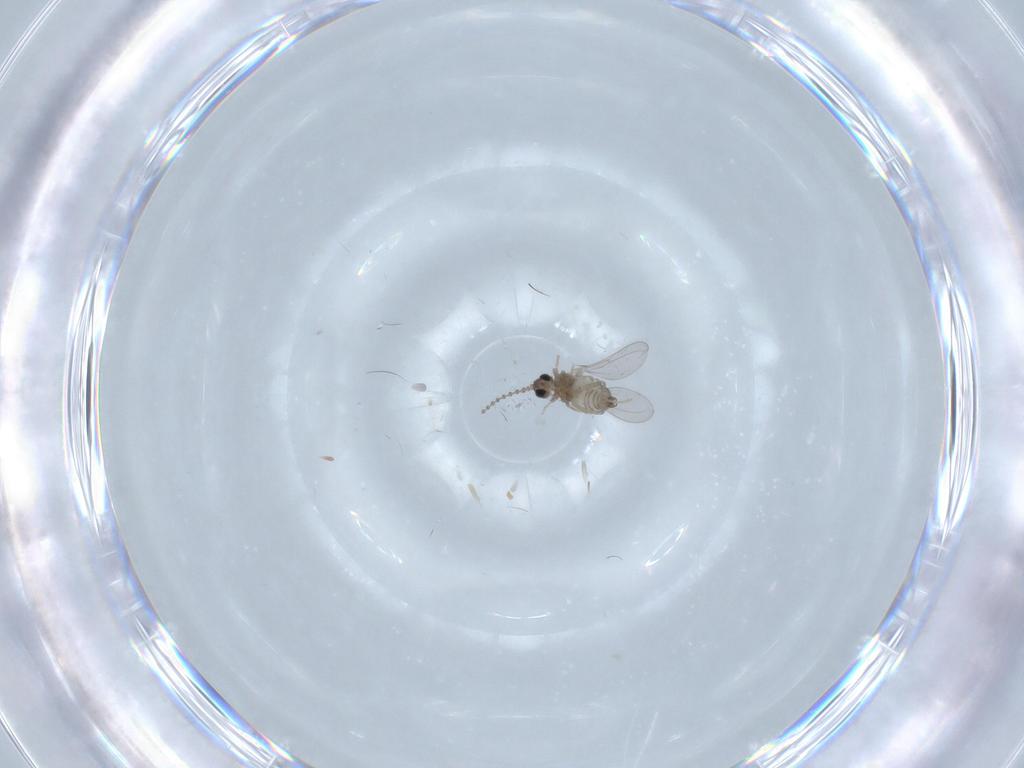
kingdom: Animalia
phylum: Arthropoda
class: Insecta
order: Diptera
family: Cecidomyiidae
